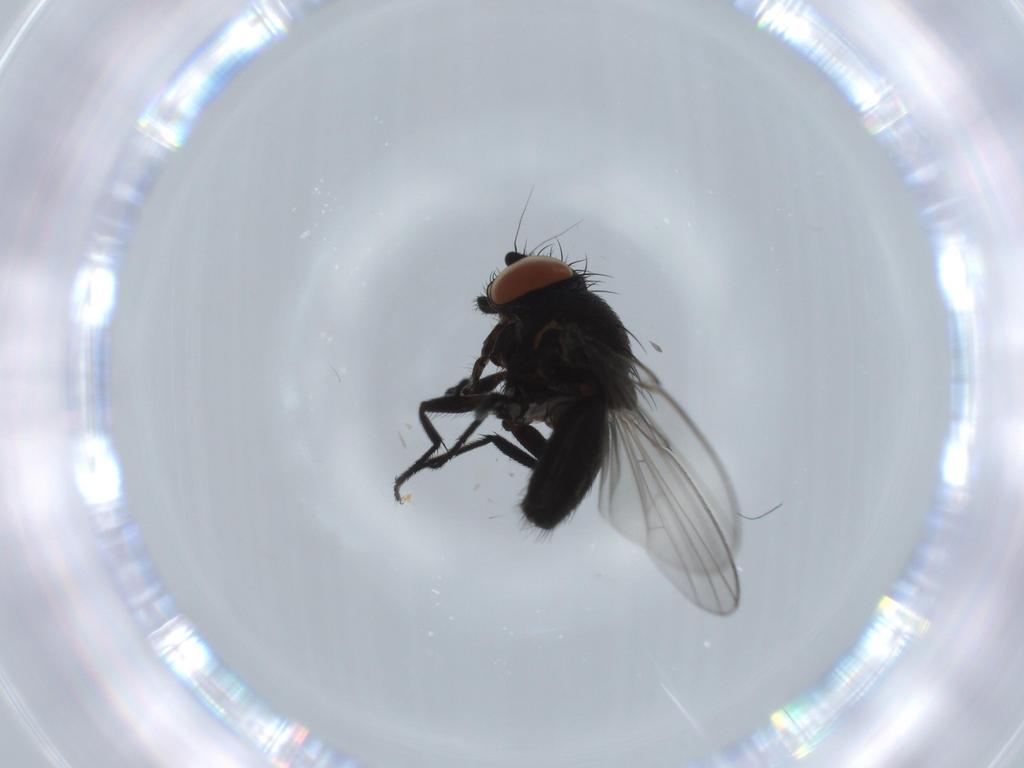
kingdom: Animalia
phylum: Arthropoda
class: Insecta
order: Diptera
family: Milichiidae
